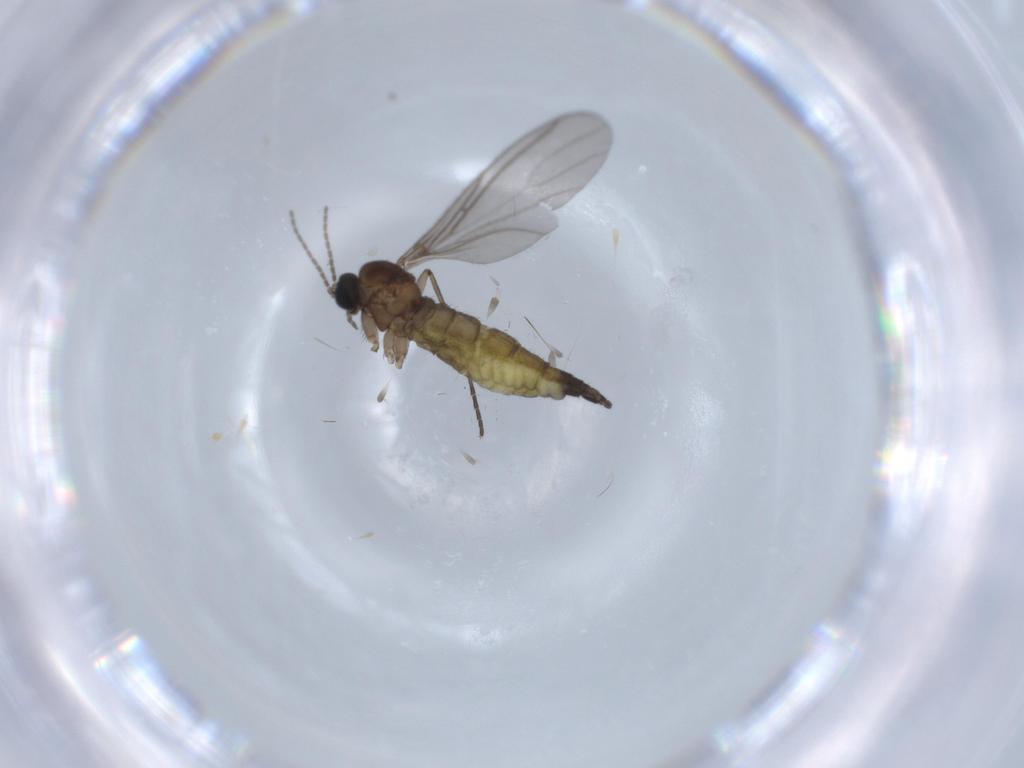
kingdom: Animalia
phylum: Arthropoda
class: Insecta
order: Diptera
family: Sciaridae
